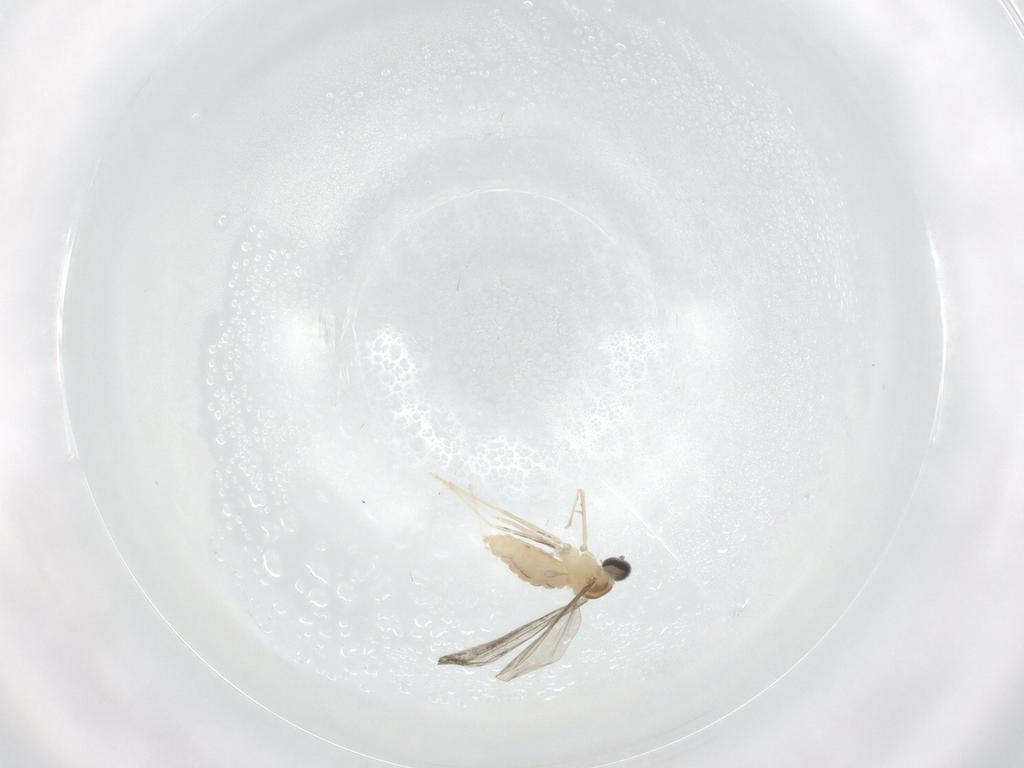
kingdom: Animalia
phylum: Arthropoda
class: Insecta
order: Diptera
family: Cecidomyiidae
